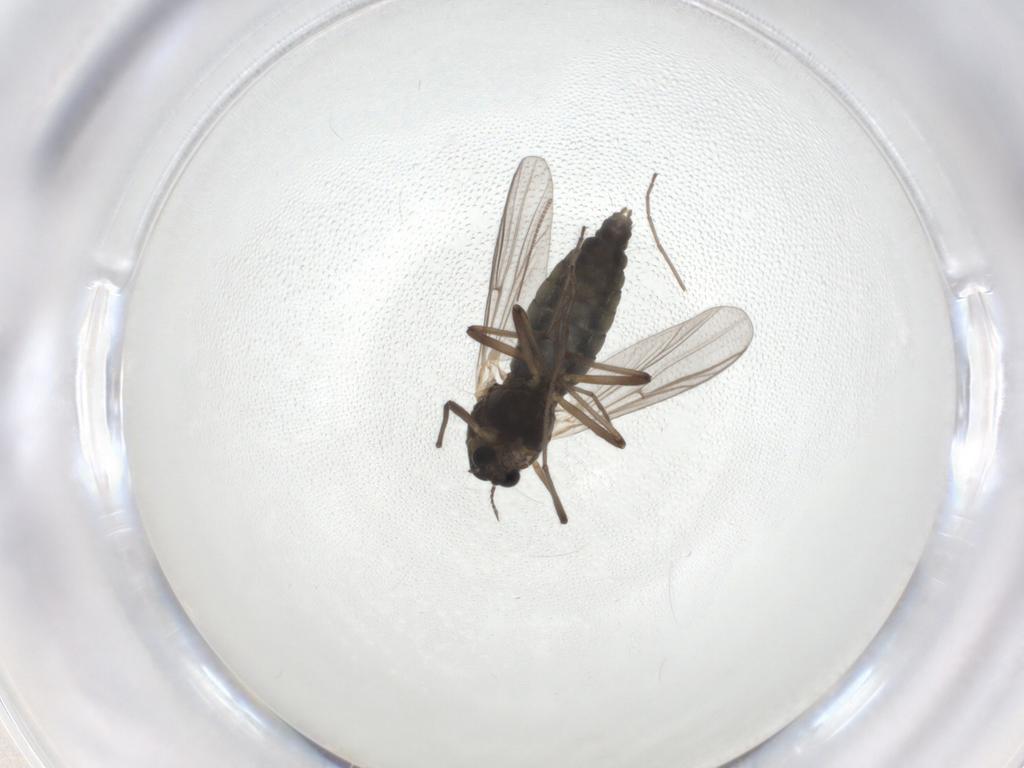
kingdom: Animalia
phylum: Arthropoda
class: Insecta
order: Diptera
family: Chironomidae
